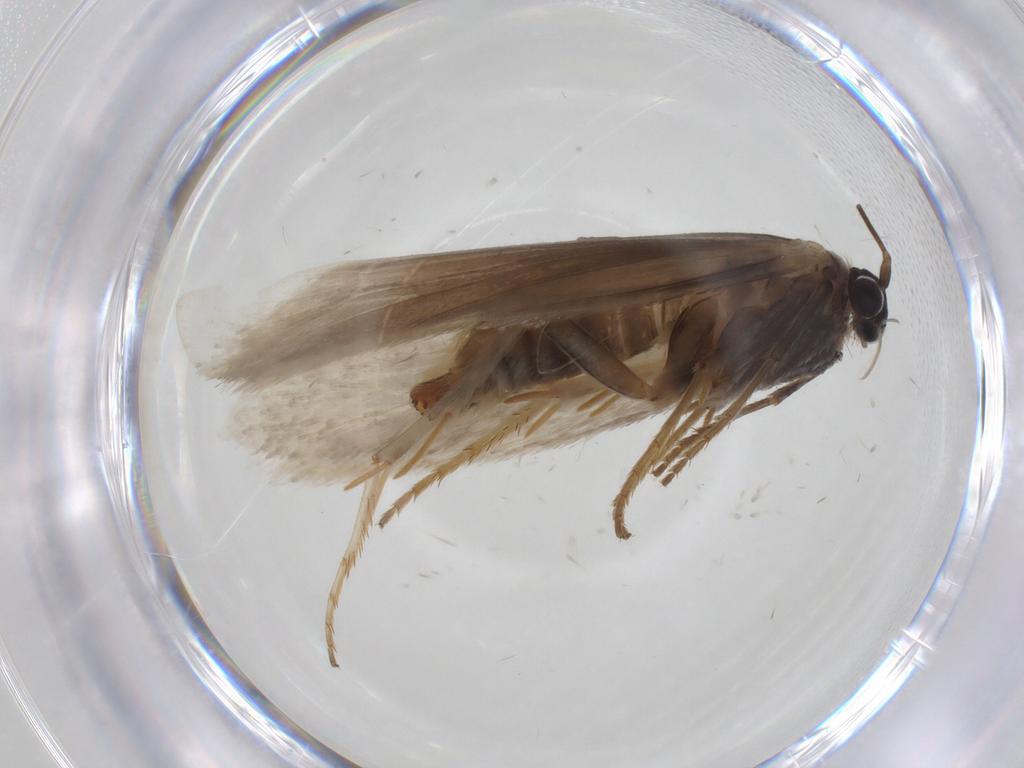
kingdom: Animalia
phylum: Arthropoda
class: Insecta
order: Lepidoptera
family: Tridentaformidae
